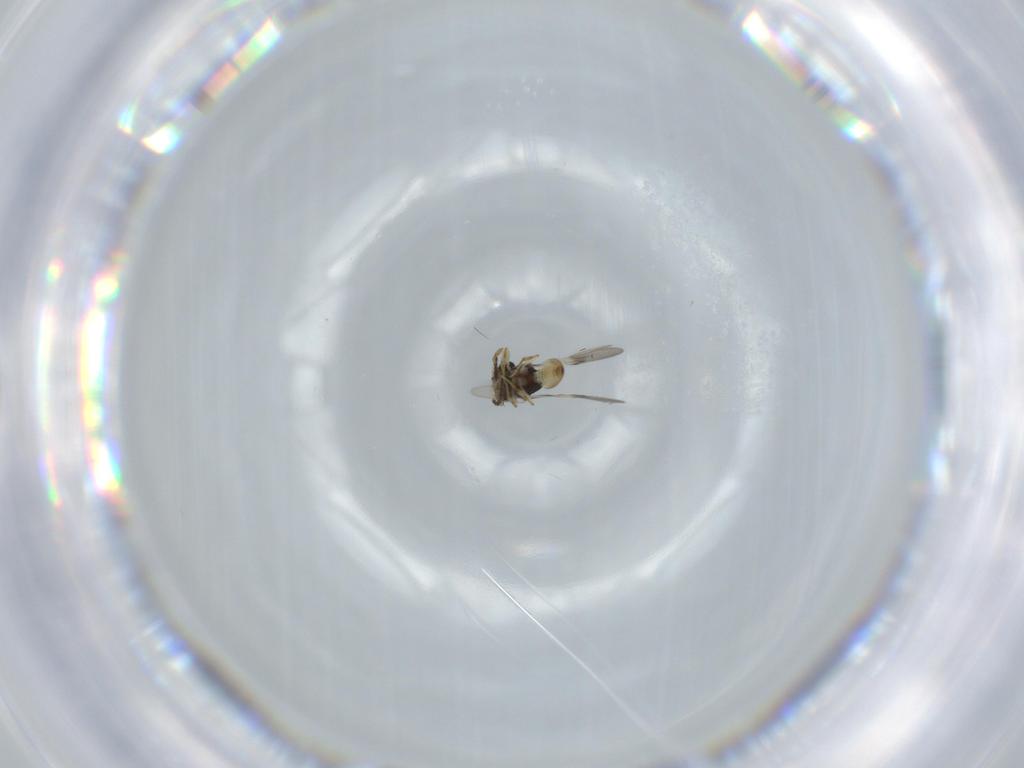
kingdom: Animalia
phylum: Arthropoda
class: Insecta
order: Hymenoptera
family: Scelionidae
